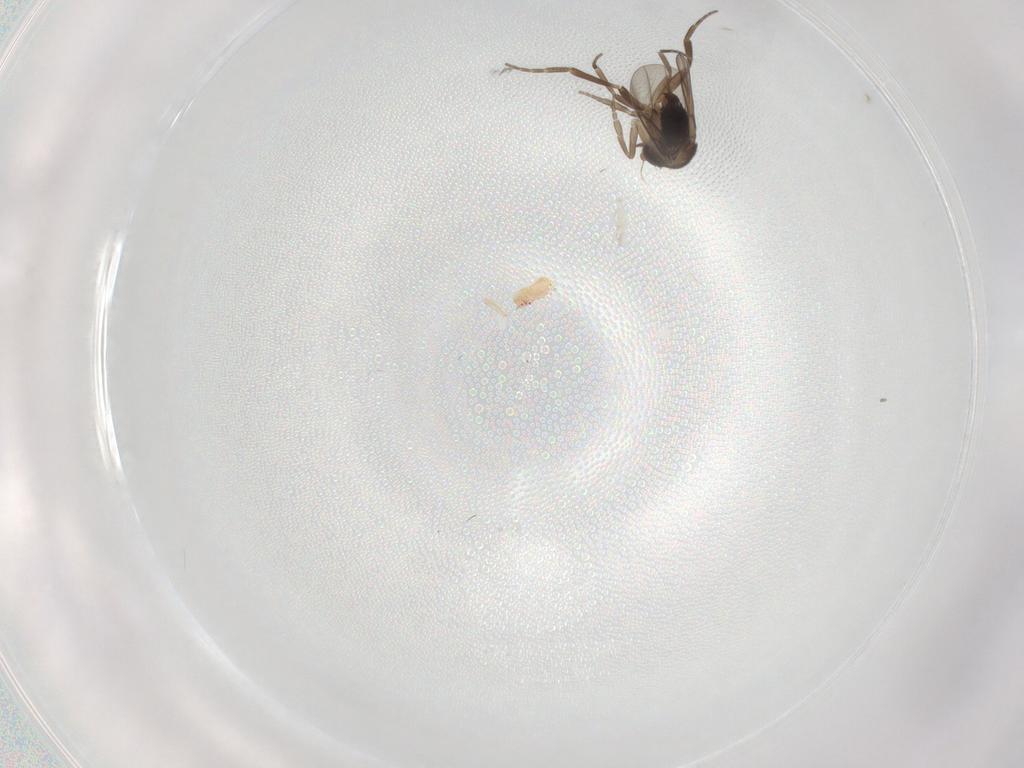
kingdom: Animalia
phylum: Arthropoda
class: Insecta
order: Diptera
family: Phoridae
